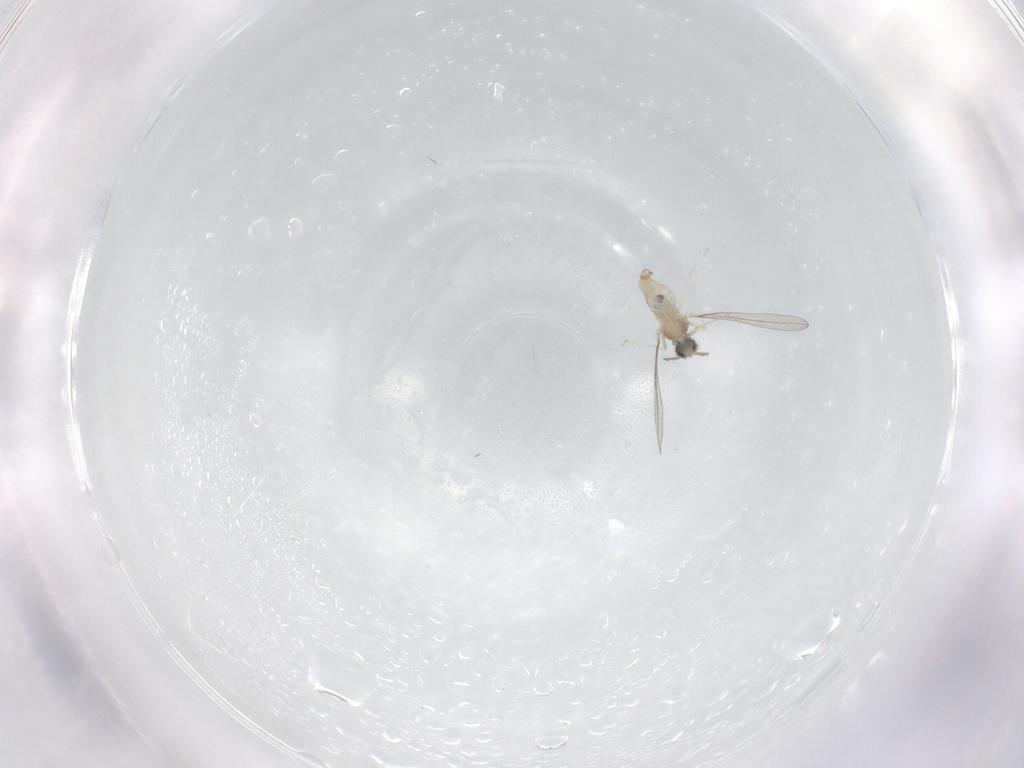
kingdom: Animalia
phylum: Arthropoda
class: Insecta
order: Diptera
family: Cecidomyiidae
